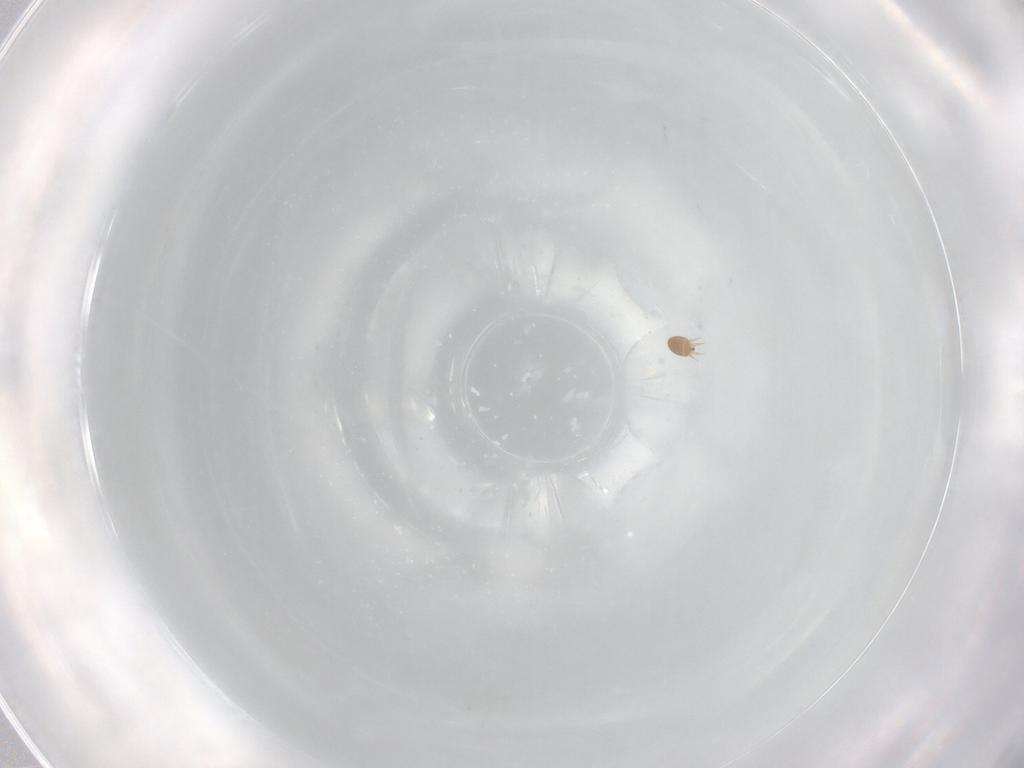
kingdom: Animalia
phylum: Arthropoda
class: Arachnida
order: Sarcoptiformes
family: Hemisarcoptidae
